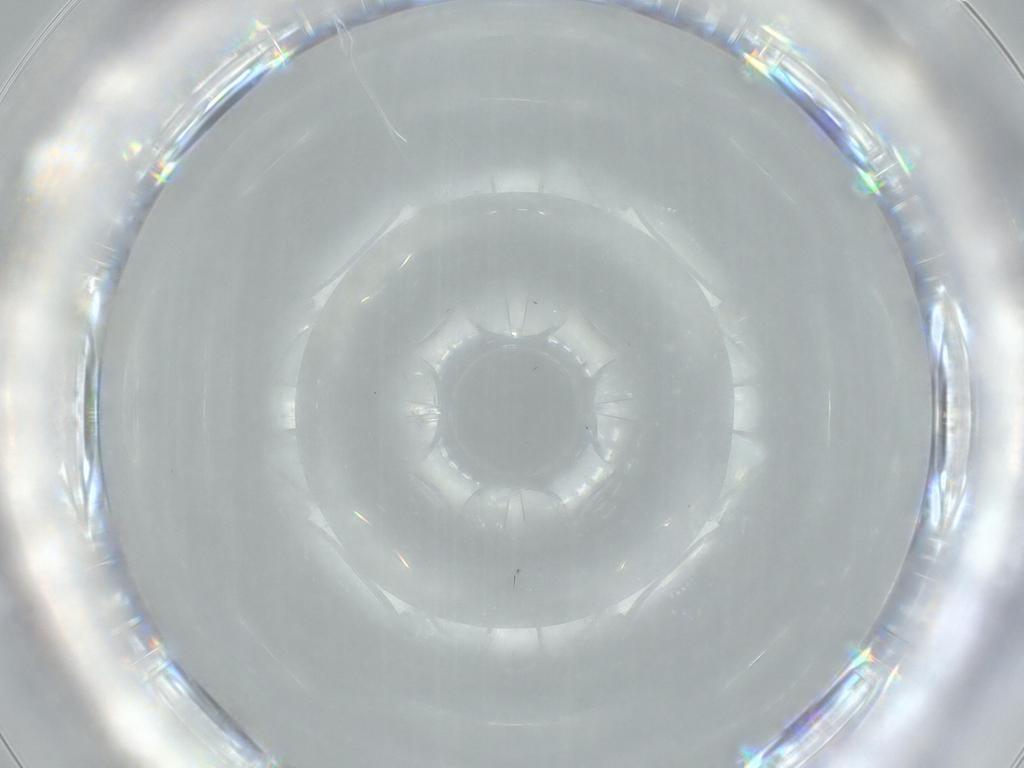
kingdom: Animalia
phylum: Arthropoda
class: Insecta
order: Diptera
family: Cecidomyiidae
